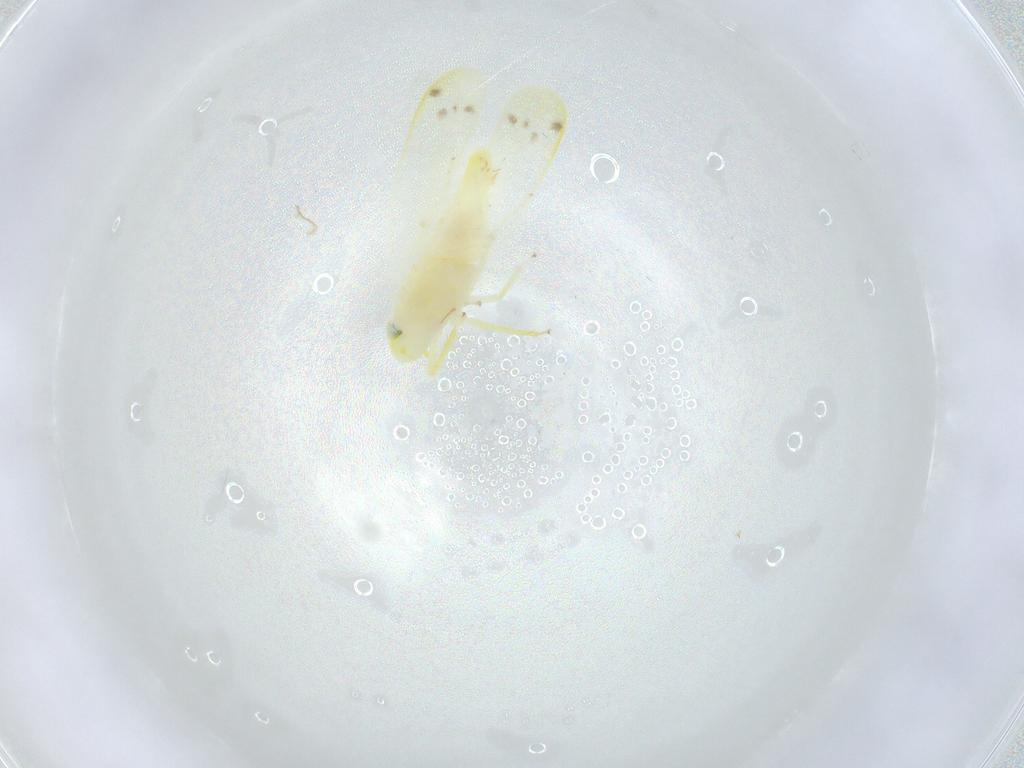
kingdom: Animalia
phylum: Arthropoda
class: Insecta
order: Hemiptera
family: Cicadellidae
